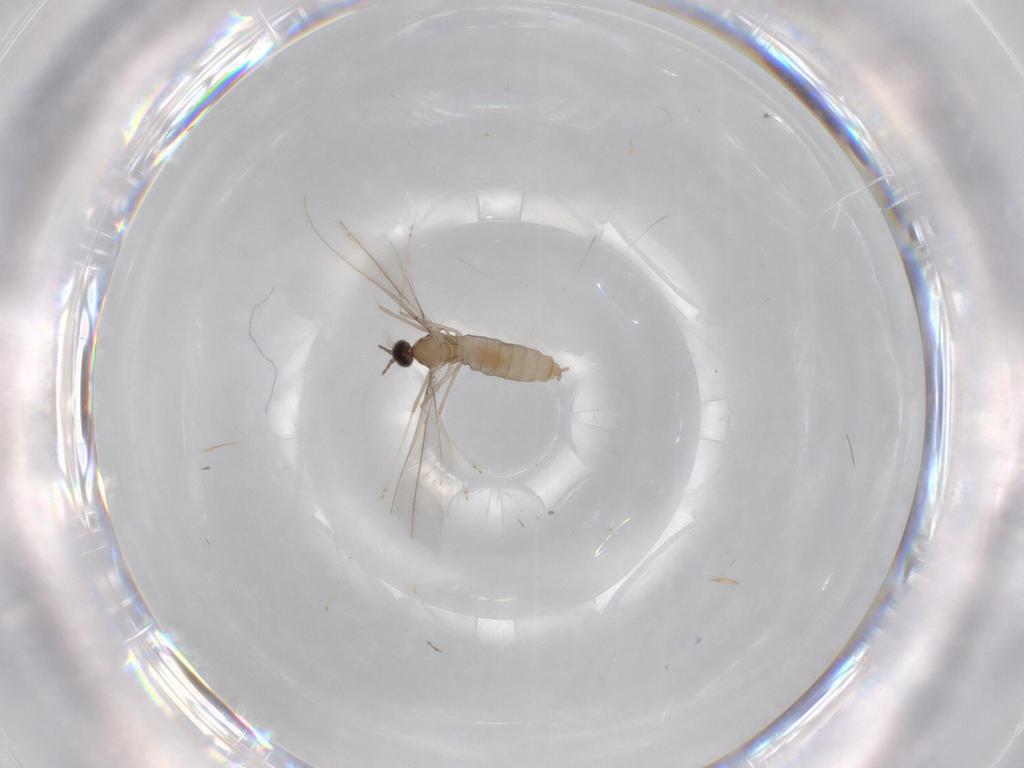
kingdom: Animalia
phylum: Arthropoda
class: Insecta
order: Diptera
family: Cecidomyiidae
